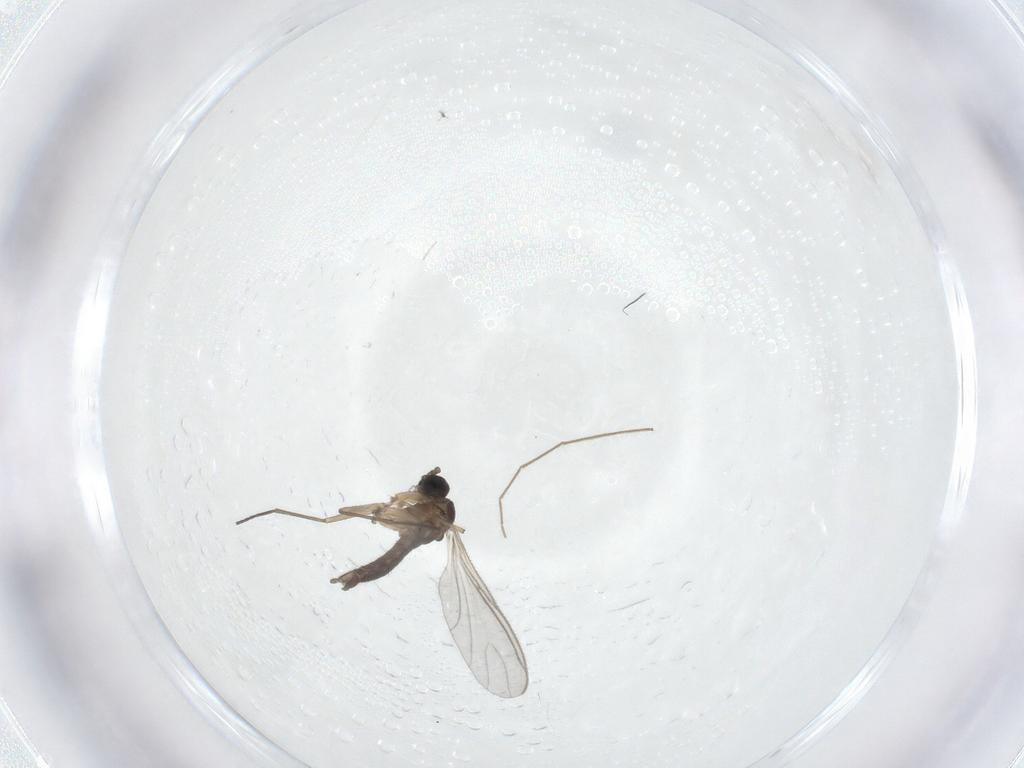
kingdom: Animalia
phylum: Arthropoda
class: Insecta
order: Diptera
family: Sciaridae
